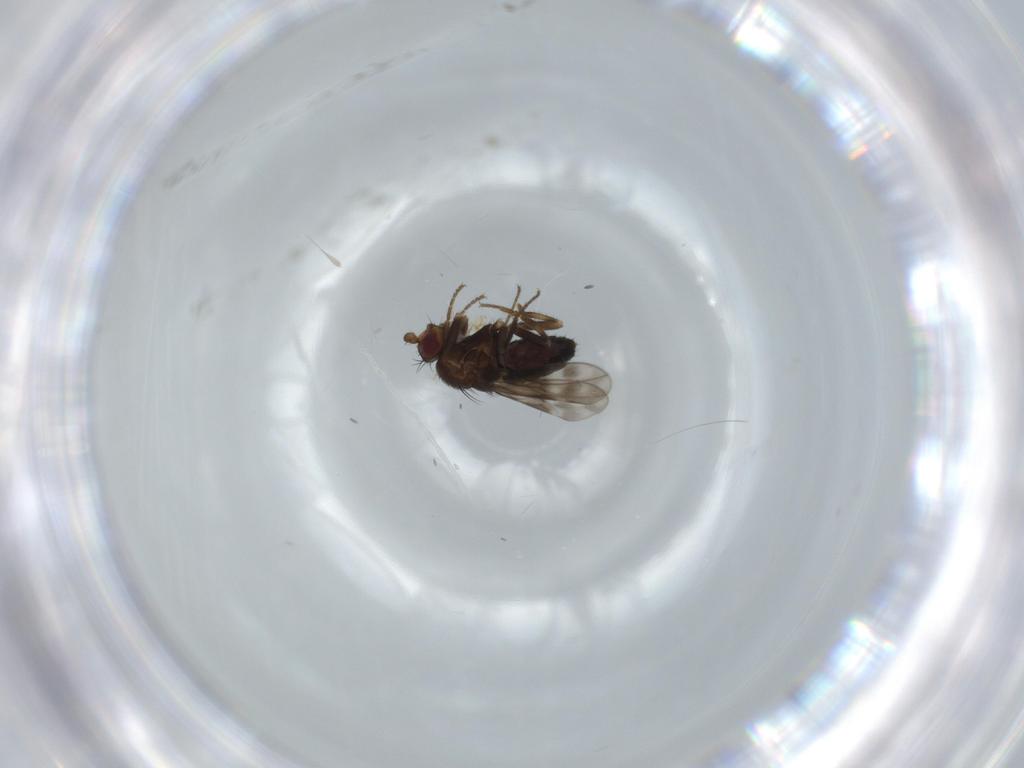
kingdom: Animalia
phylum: Arthropoda
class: Insecta
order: Diptera
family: Sphaeroceridae
